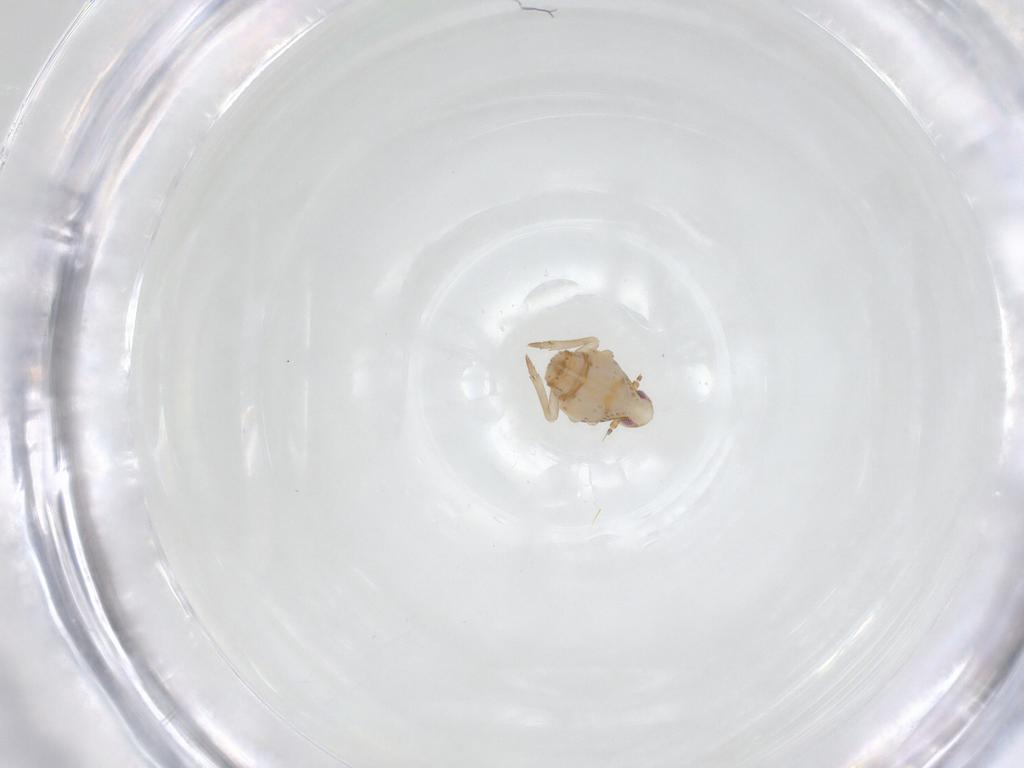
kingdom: Animalia
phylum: Arthropoda
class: Insecta
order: Hemiptera
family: Flatidae
